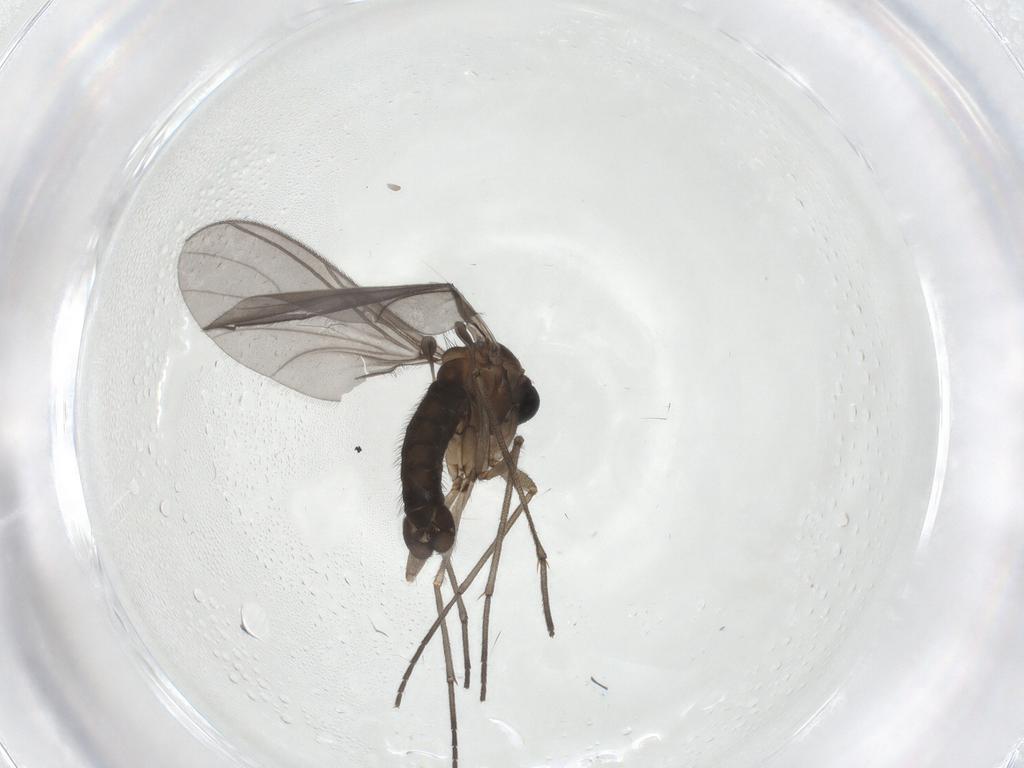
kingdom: Animalia
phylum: Arthropoda
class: Insecta
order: Diptera
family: Sciaridae
